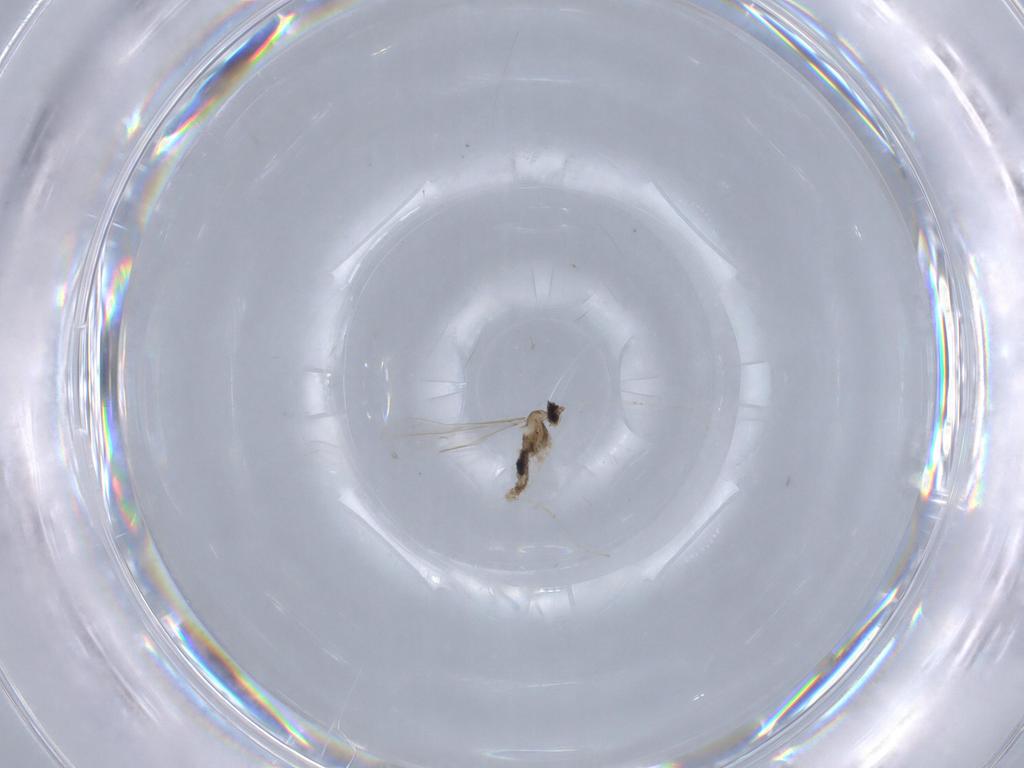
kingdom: Animalia
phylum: Arthropoda
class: Insecta
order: Diptera
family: Cecidomyiidae
